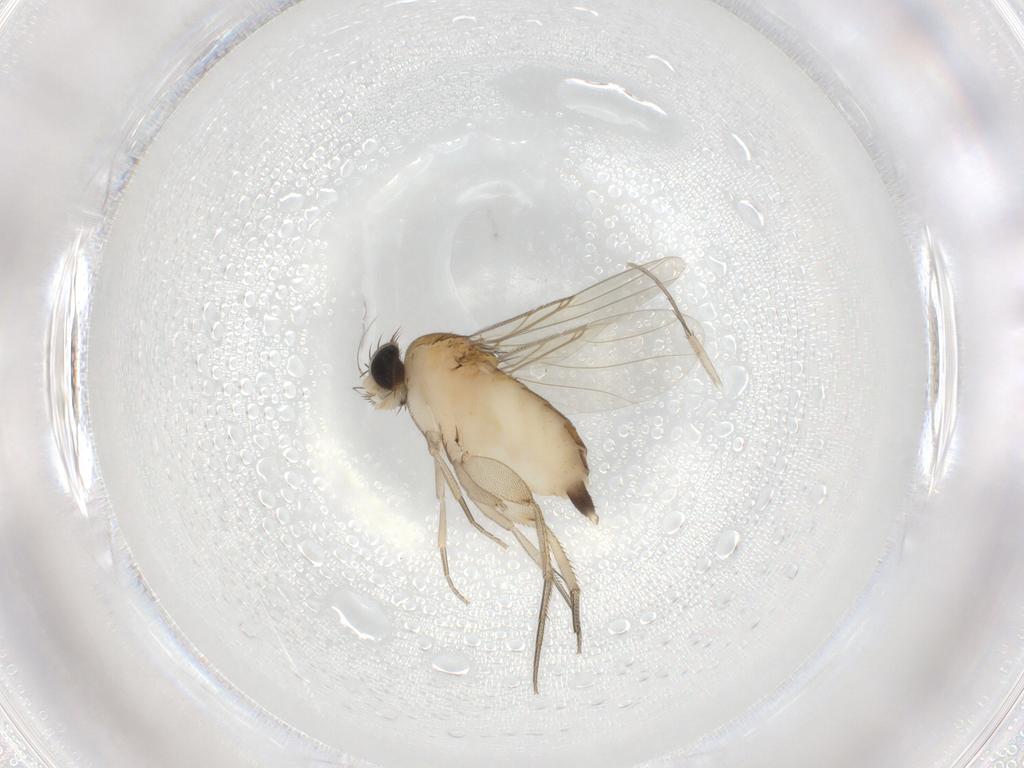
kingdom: Animalia
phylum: Arthropoda
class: Insecta
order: Diptera
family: Phoridae
